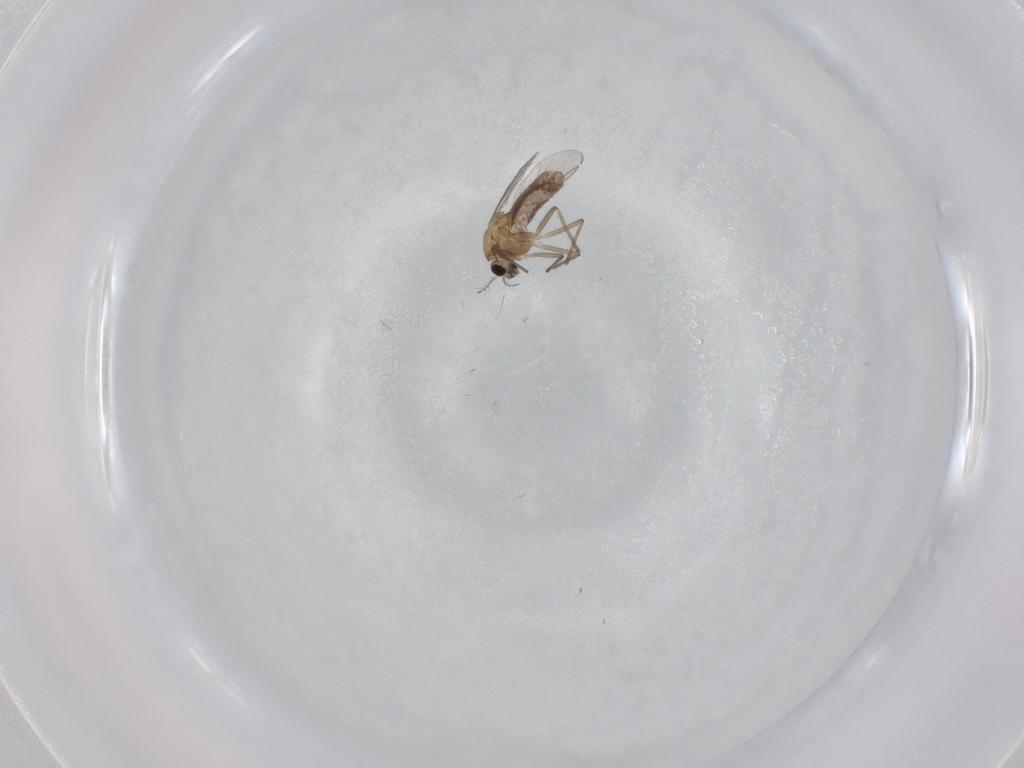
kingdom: Animalia
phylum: Arthropoda
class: Insecta
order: Diptera
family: Chironomidae
